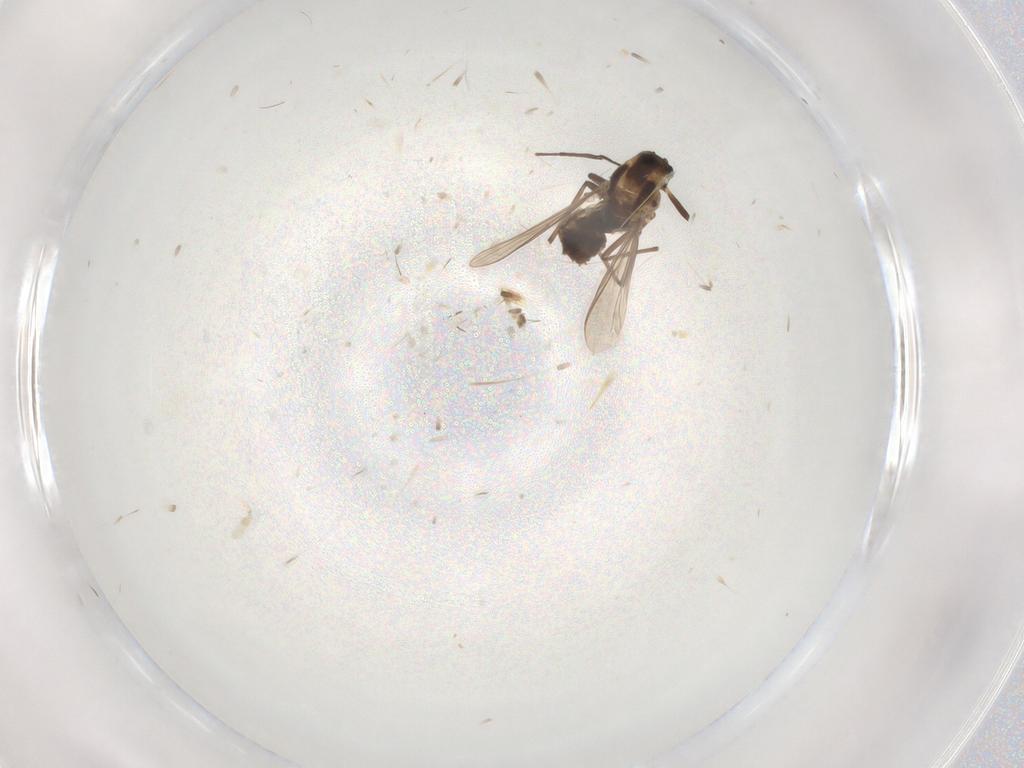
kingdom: Animalia
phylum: Arthropoda
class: Insecta
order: Diptera
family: Chironomidae
